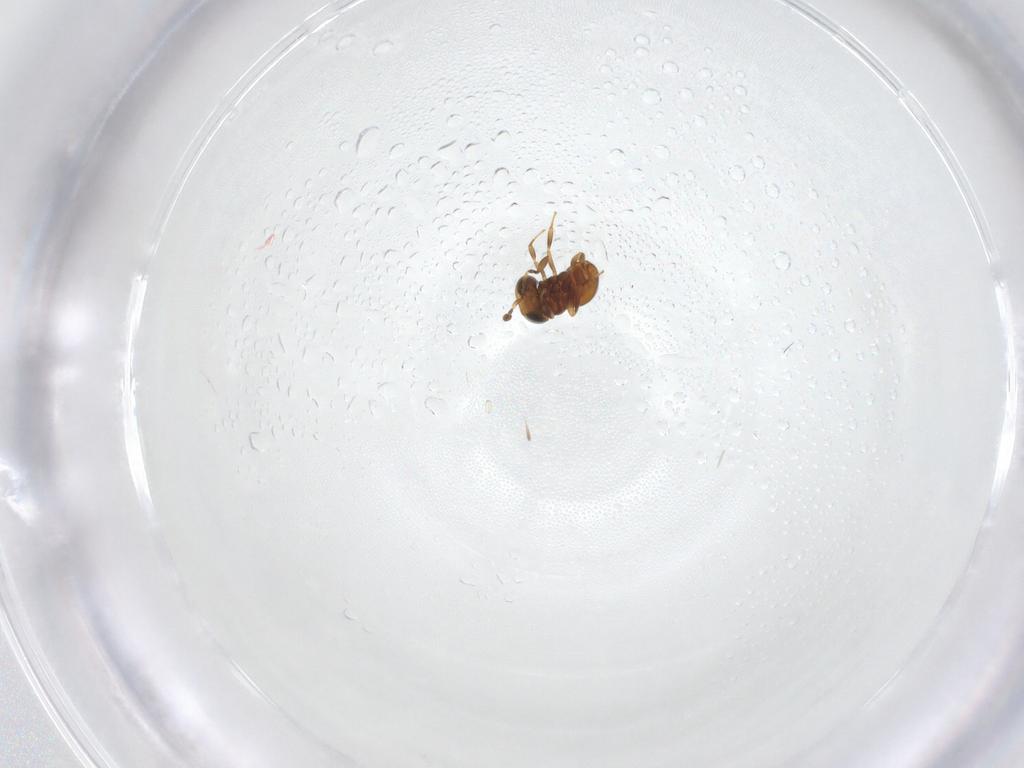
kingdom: Animalia
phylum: Arthropoda
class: Insecta
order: Hymenoptera
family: Scelionidae
